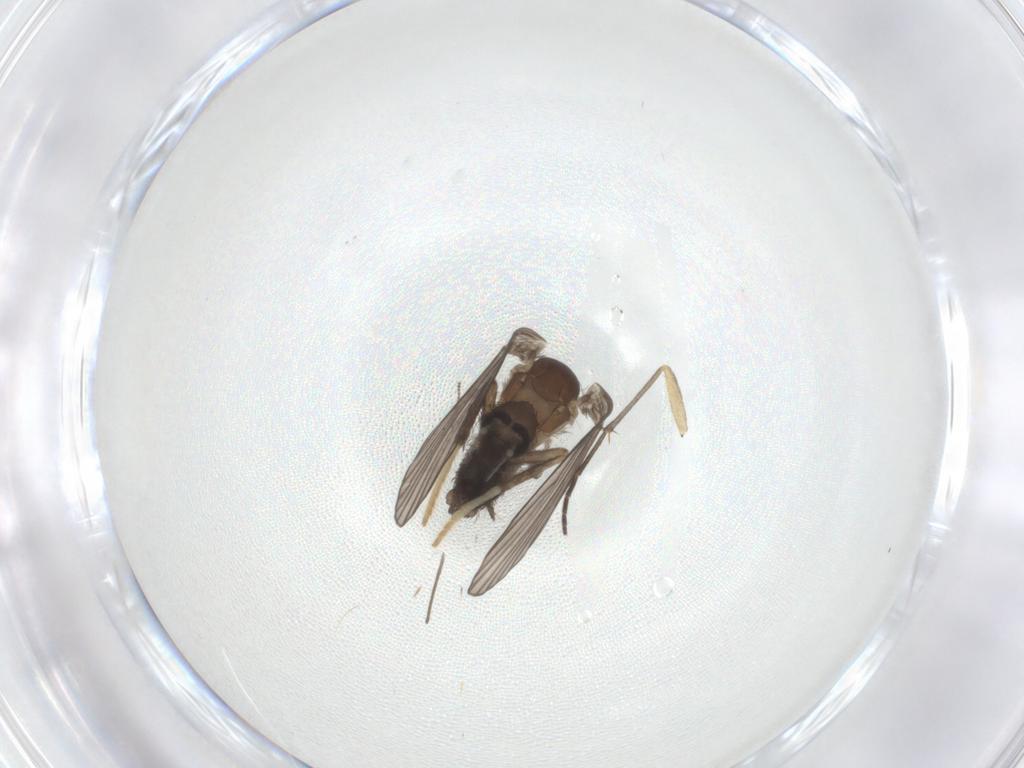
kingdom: Animalia
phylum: Arthropoda
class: Insecta
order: Diptera
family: Psychodidae
